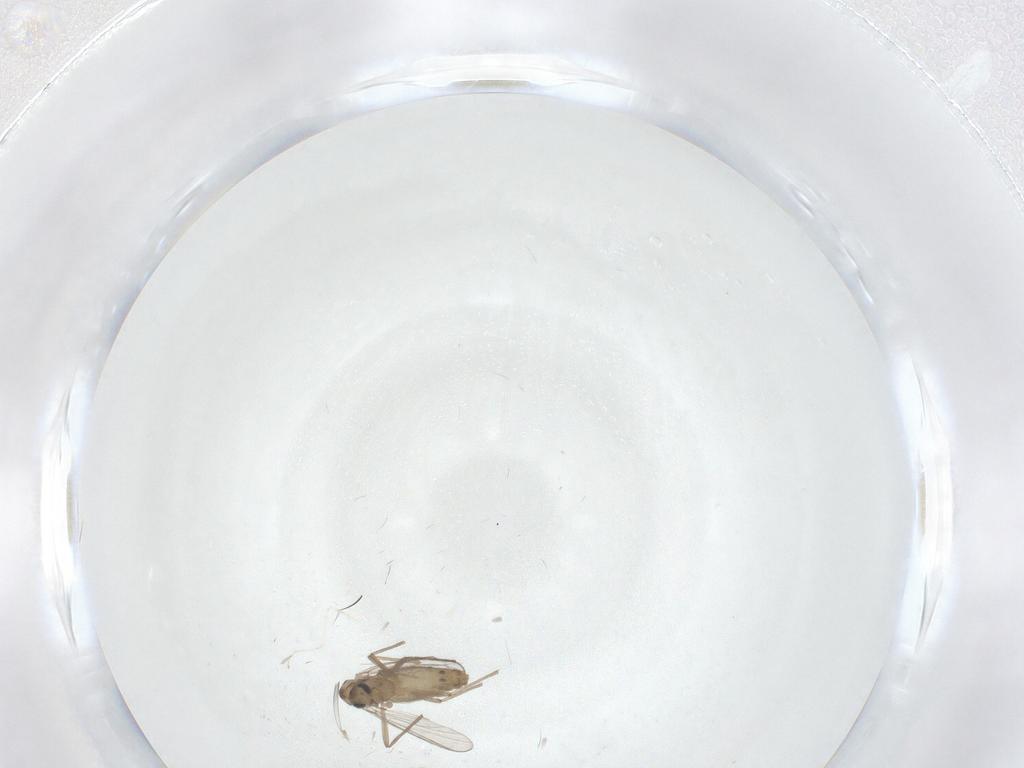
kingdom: Animalia
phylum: Arthropoda
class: Insecta
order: Diptera
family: Chironomidae
